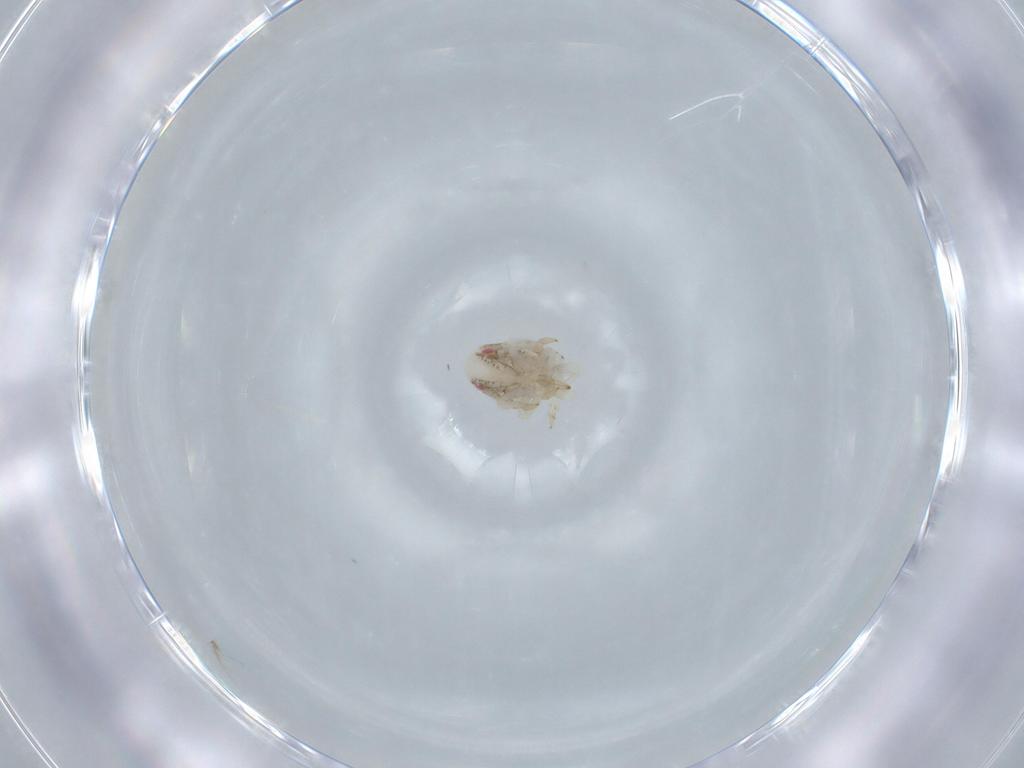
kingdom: Animalia
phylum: Arthropoda
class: Insecta
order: Hemiptera
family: Acanaloniidae
